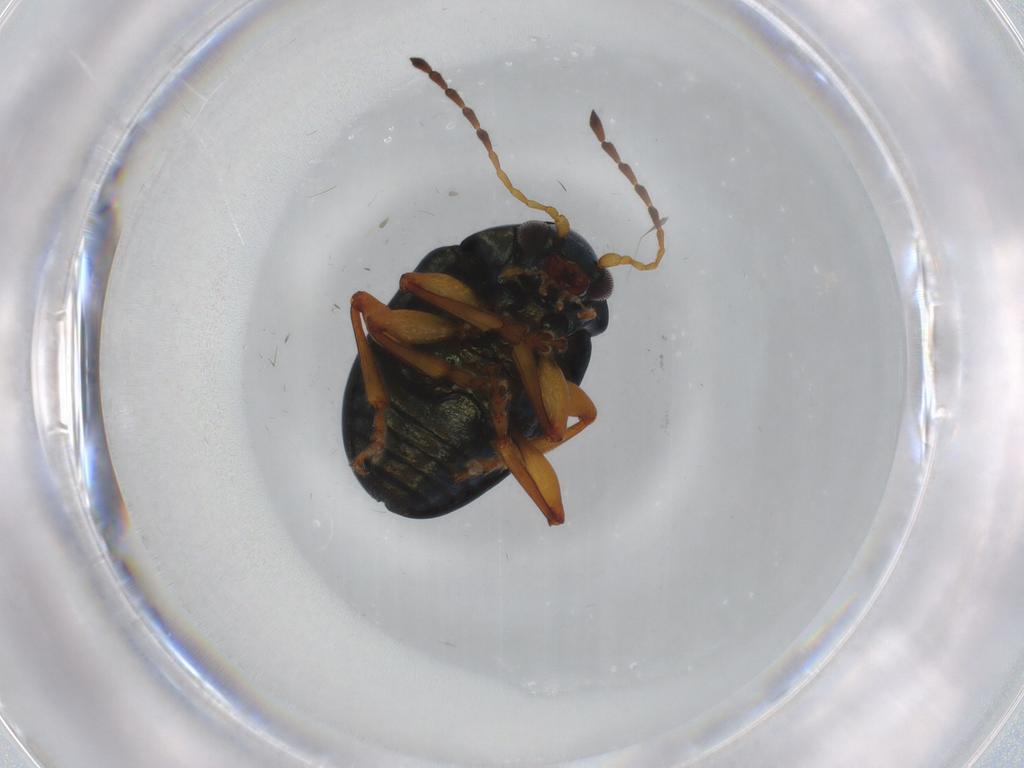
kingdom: Animalia
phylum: Arthropoda
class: Insecta
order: Coleoptera
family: Chrysomelidae
